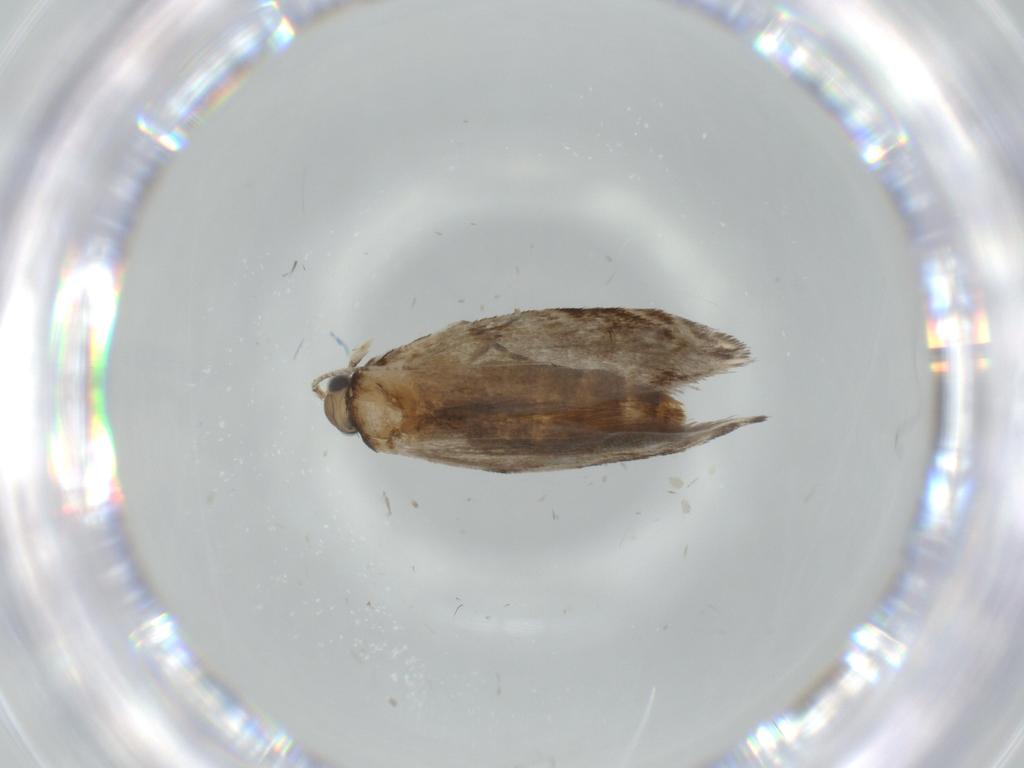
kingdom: Animalia
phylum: Arthropoda
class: Insecta
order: Lepidoptera
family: Tineidae
